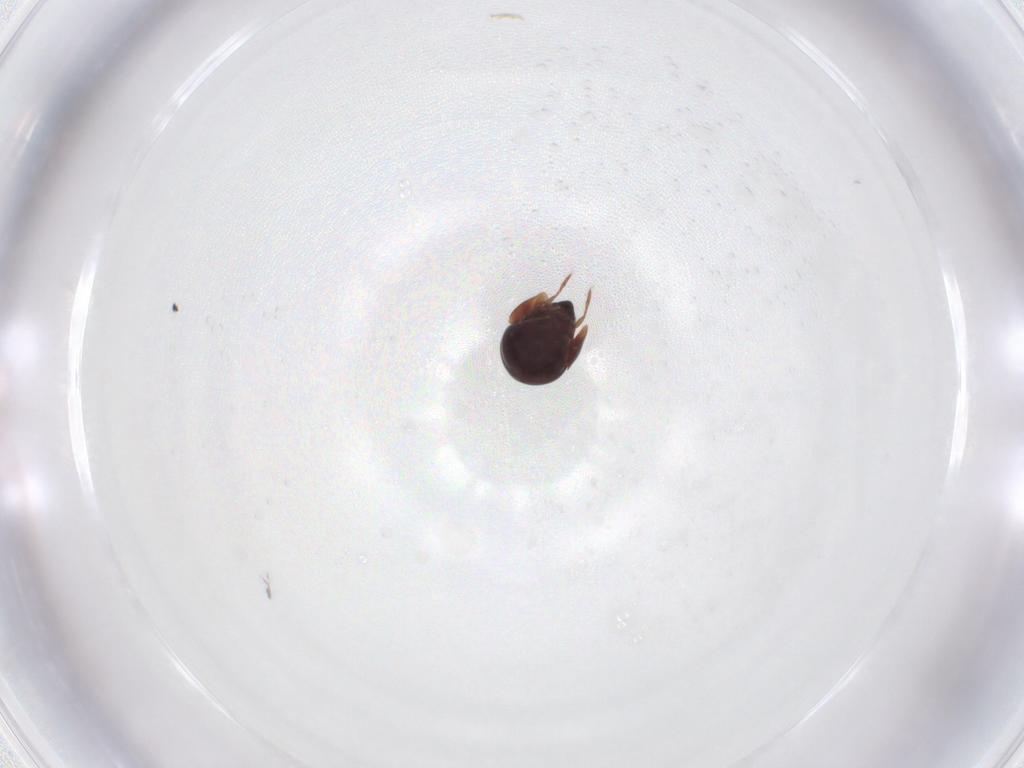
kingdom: Animalia
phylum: Arthropoda
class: Arachnida
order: Sarcoptiformes
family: Galumnidae
